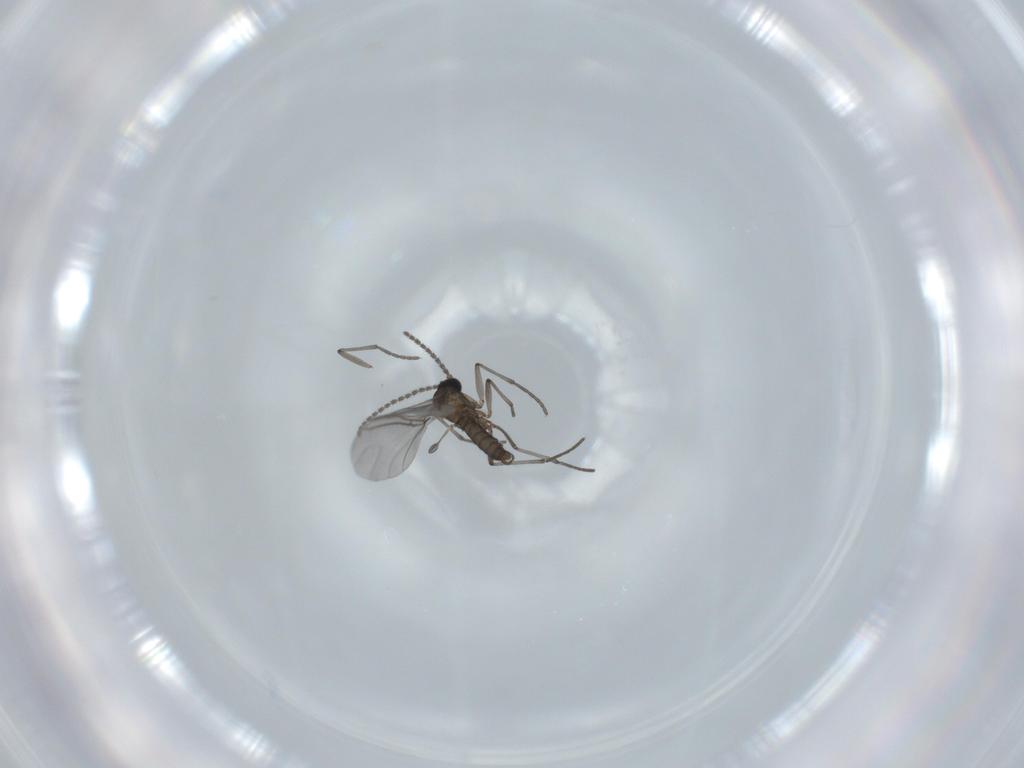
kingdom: Animalia
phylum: Arthropoda
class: Insecta
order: Diptera
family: Sciaridae
